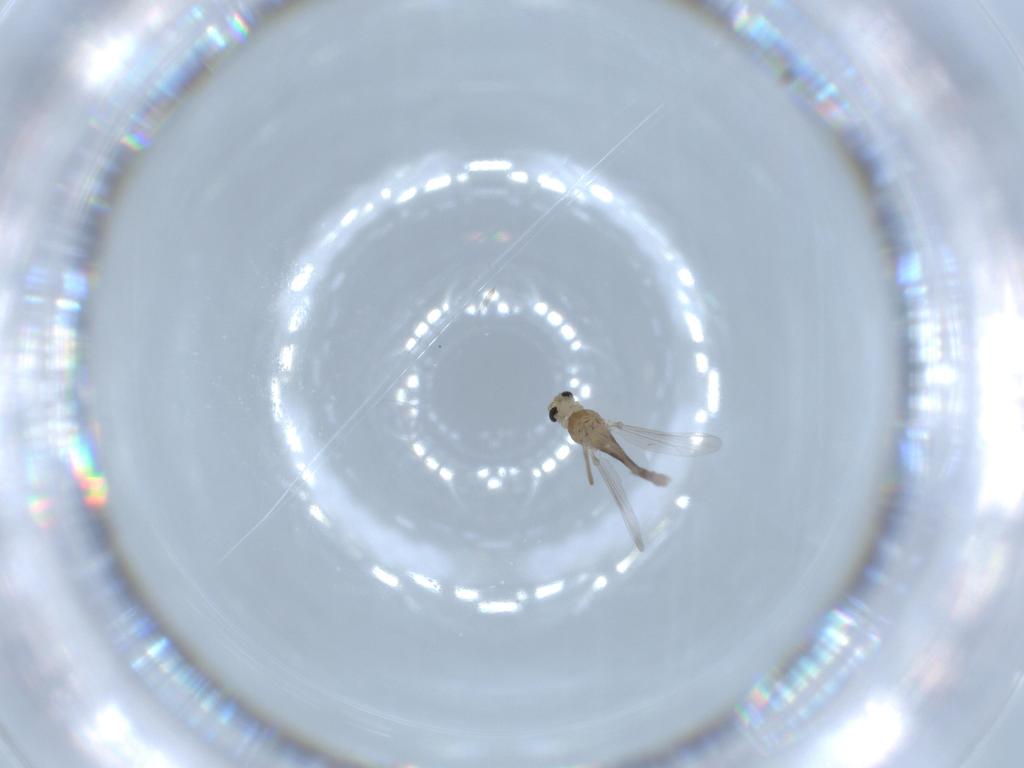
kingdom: Animalia
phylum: Arthropoda
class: Insecta
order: Diptera
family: Chironomidae
